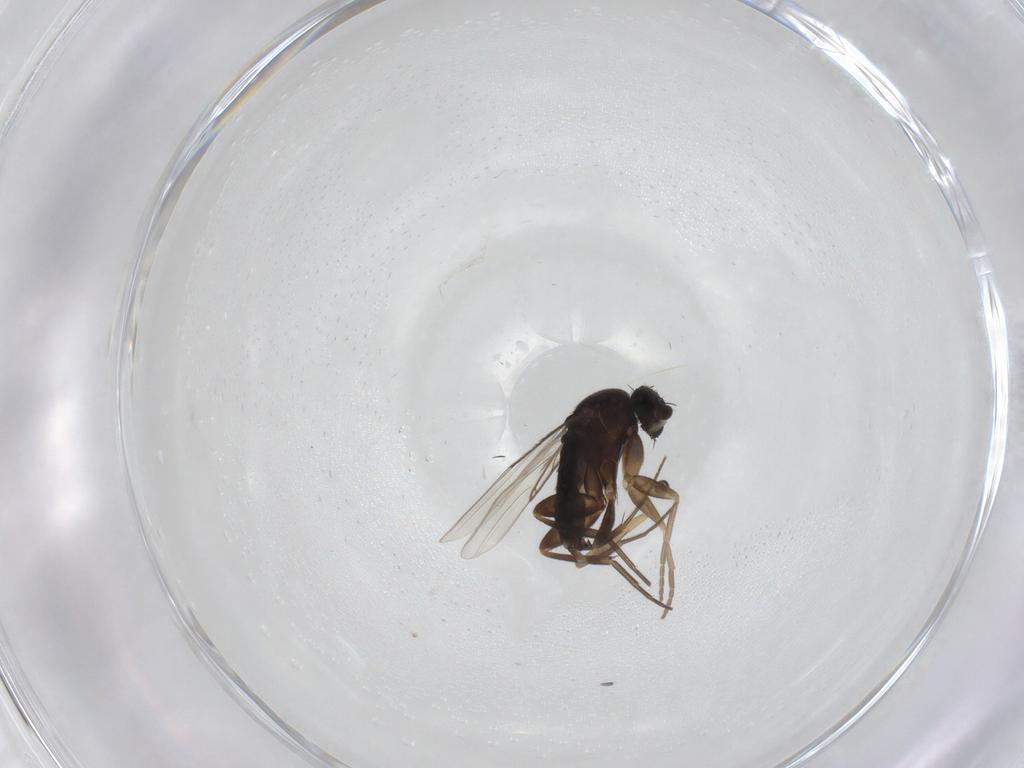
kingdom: Animalia
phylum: Arthropoda
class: Insecta
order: Diptera
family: Phoridae
